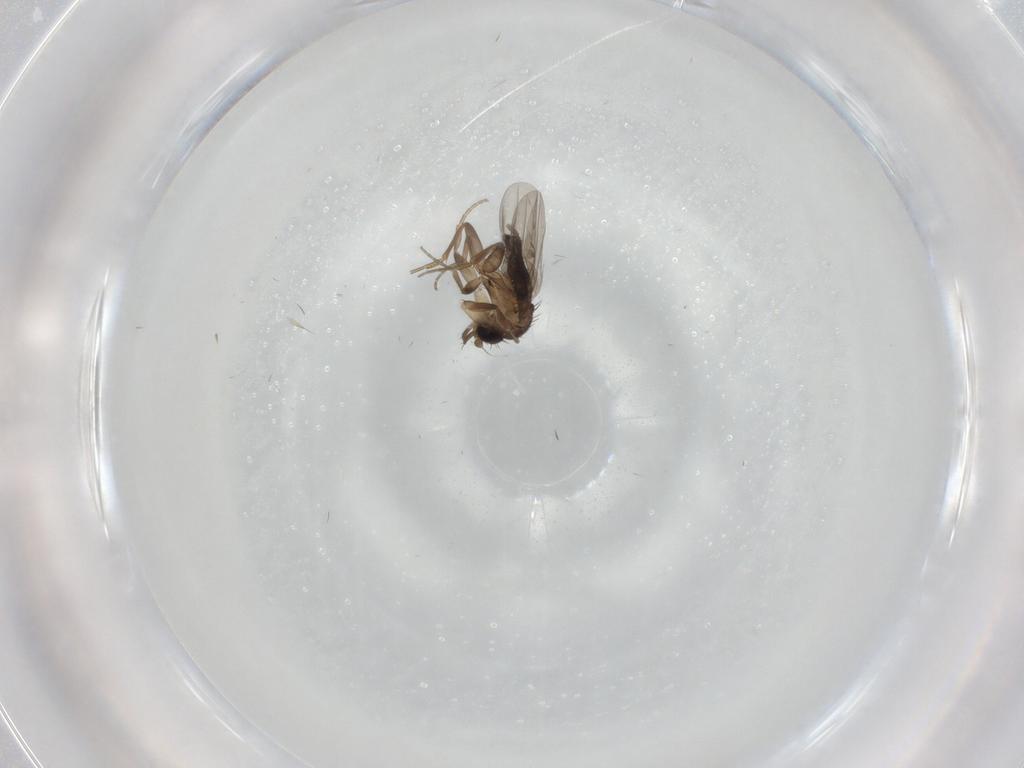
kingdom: Animalia
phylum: Arthropoda
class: Insecta
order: Diptera
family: Phoridae
